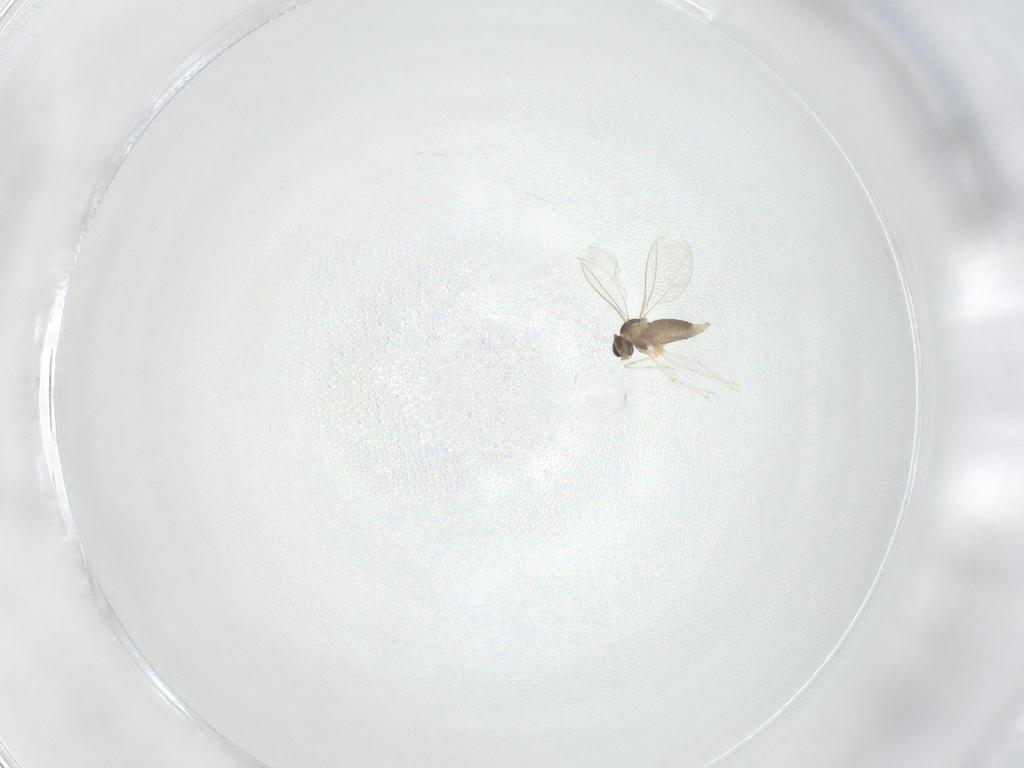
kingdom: Animalia
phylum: Arthropoda
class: Insecta
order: Diptera
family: Cecidomyiidae
